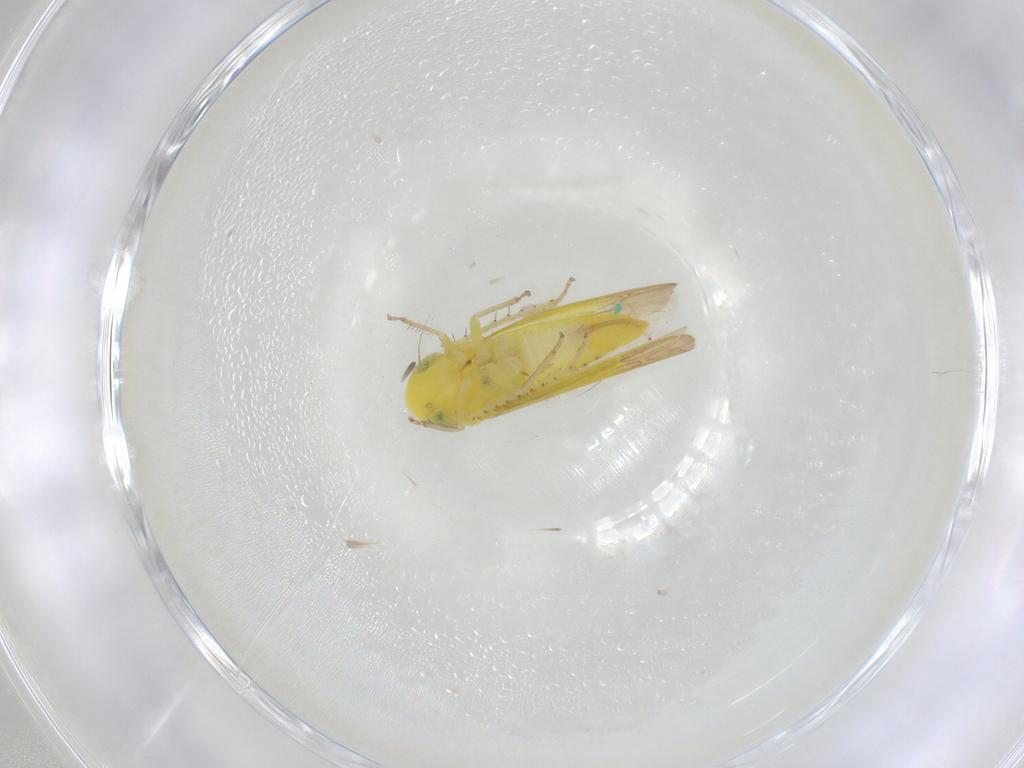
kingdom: Animalia
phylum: Arthropoda
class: Insecta
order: Hemiptera
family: Cicadellidae
